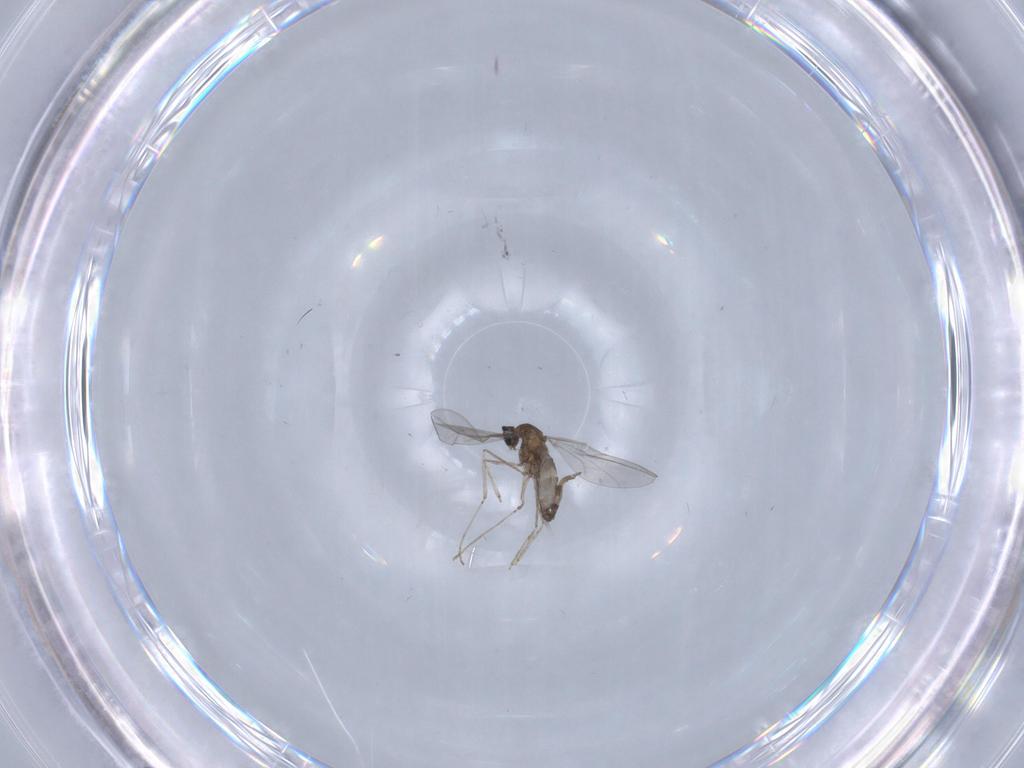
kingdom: Animalia
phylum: Arthropoda
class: Insecta
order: Diptera
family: Cecidomyiidae
